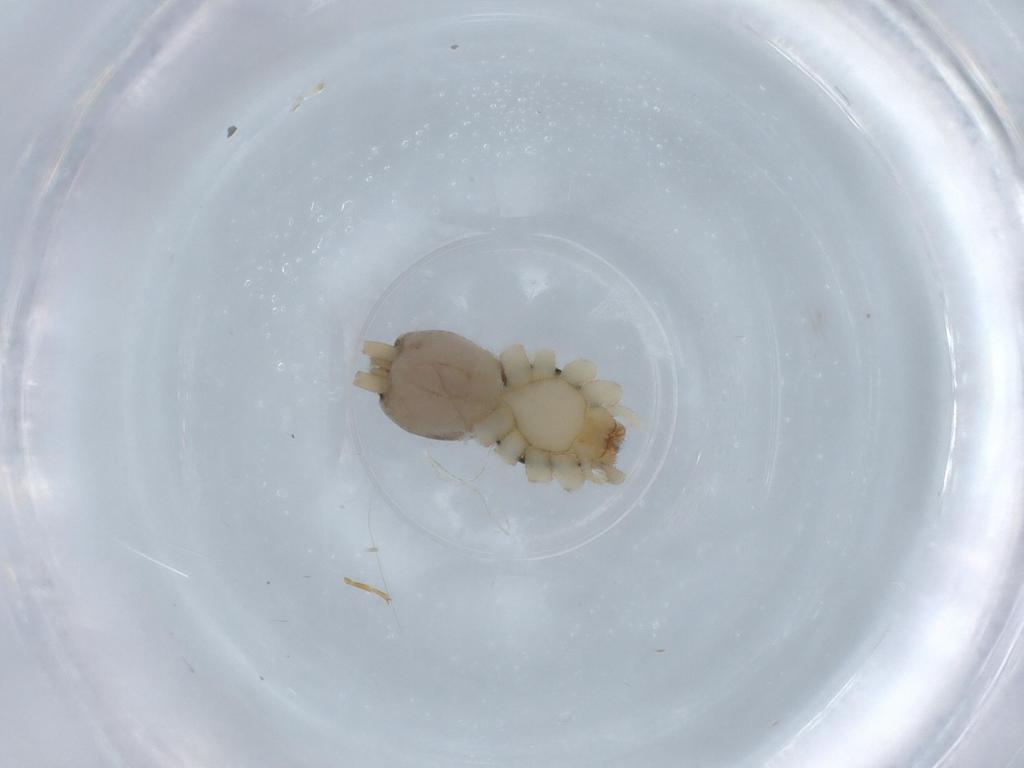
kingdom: Animalia
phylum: Arthropoda
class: Arachnida
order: Araneae
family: Gnaphosidae
